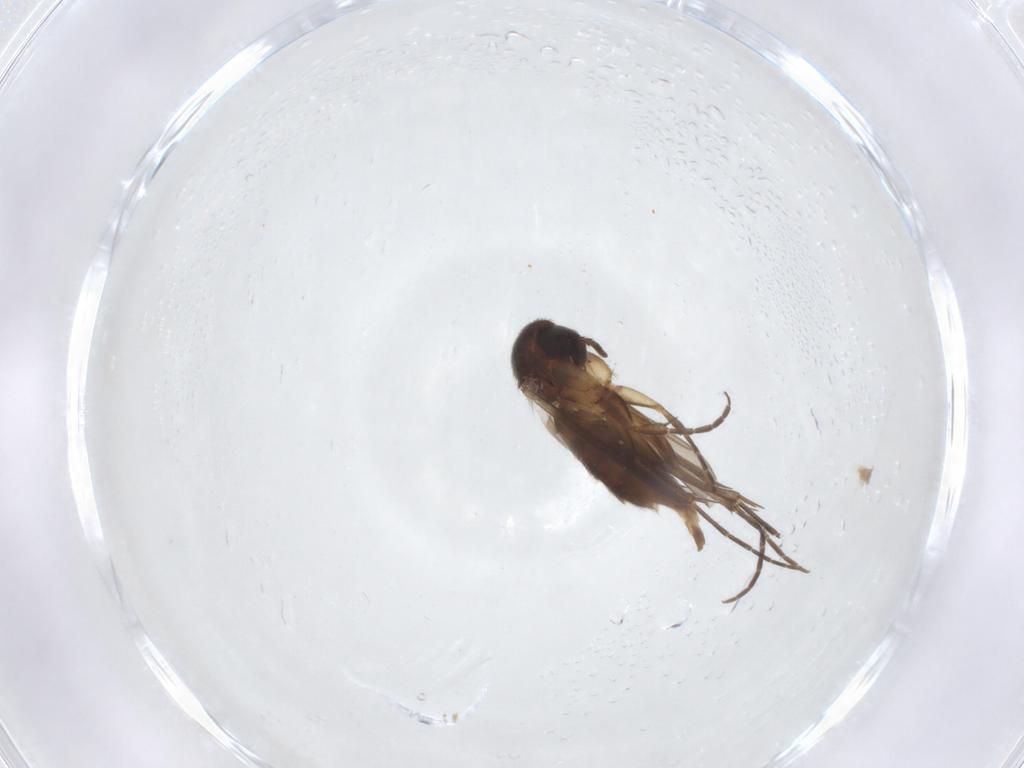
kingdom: Animalia
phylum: Arthropoda
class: Insecta
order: Diptera
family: Mycetophilidae
